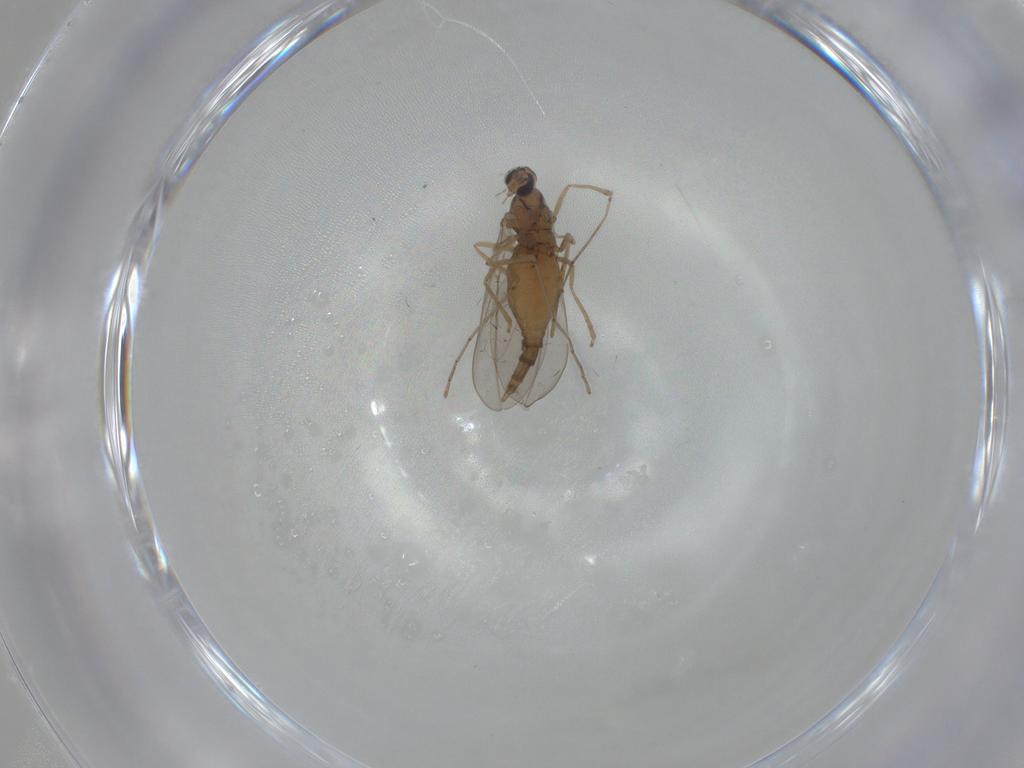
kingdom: Animalia
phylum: Arthropoda
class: Insecta
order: Diptera
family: Cecidomyiidae
